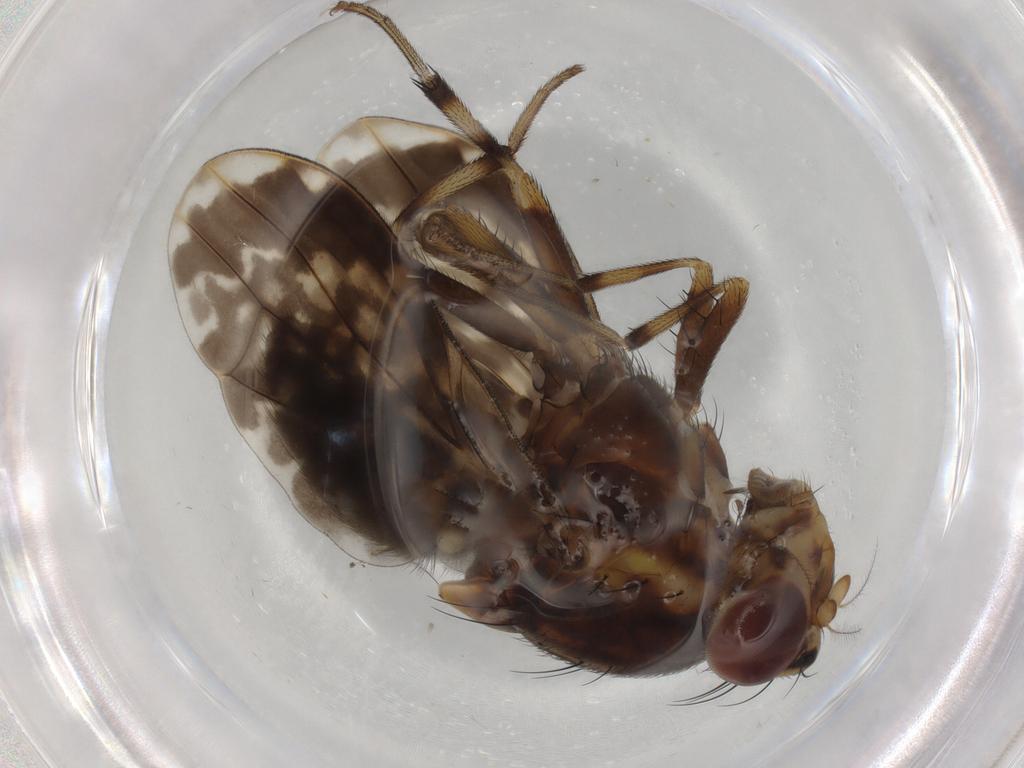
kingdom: Animalia
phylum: Arthropoda
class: Insecta
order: Diptera
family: Psychodidae
